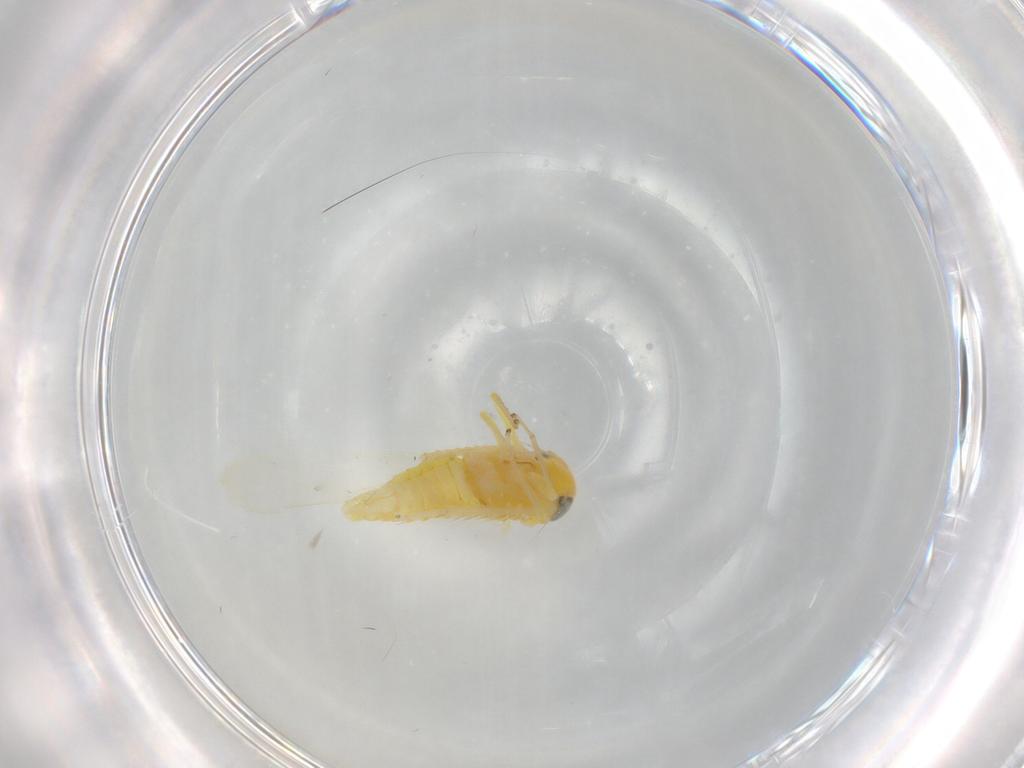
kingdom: Animalia
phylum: Arthropoda
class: Insecta
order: Hemiptera
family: Cicadellidae
